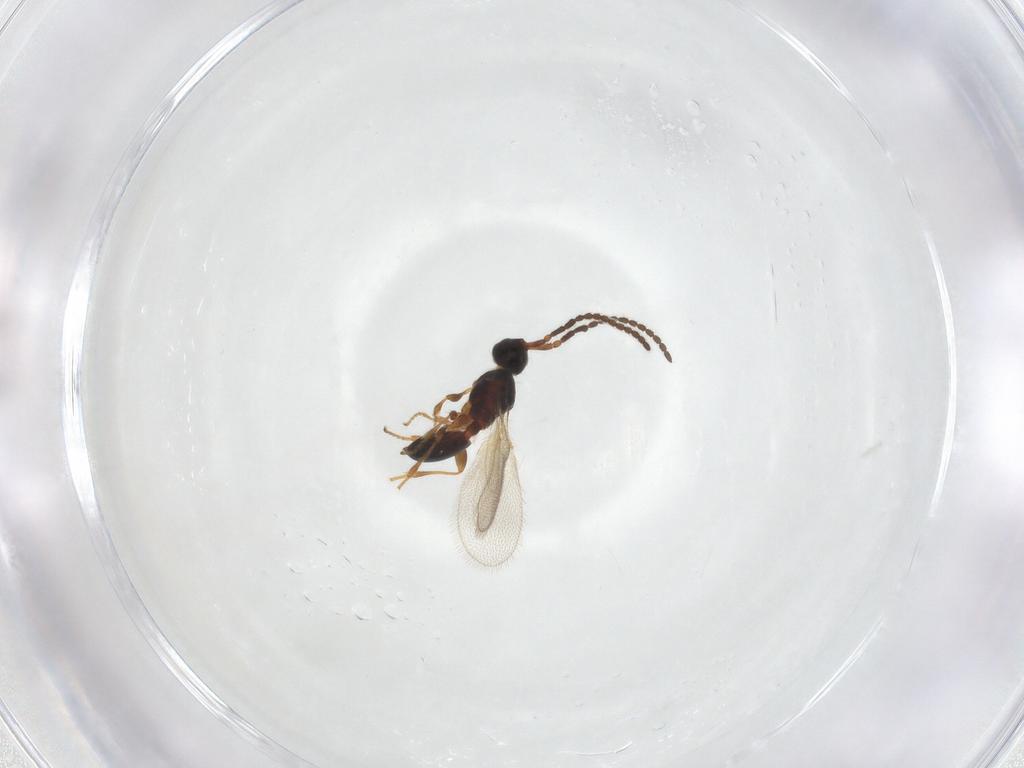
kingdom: Animalia
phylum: Arthropoda
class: Insecta
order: Hymenoptera
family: Diapriidae
